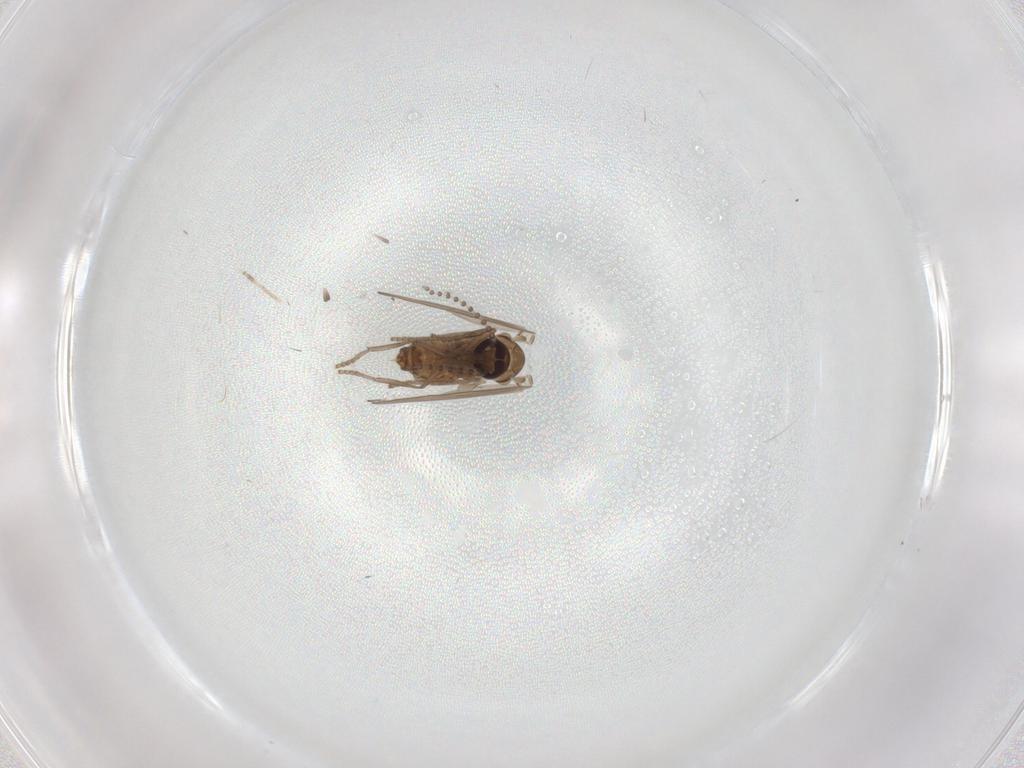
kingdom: Animalia
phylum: Arthropoda
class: Insecta
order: Diptera
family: Psychodidae
